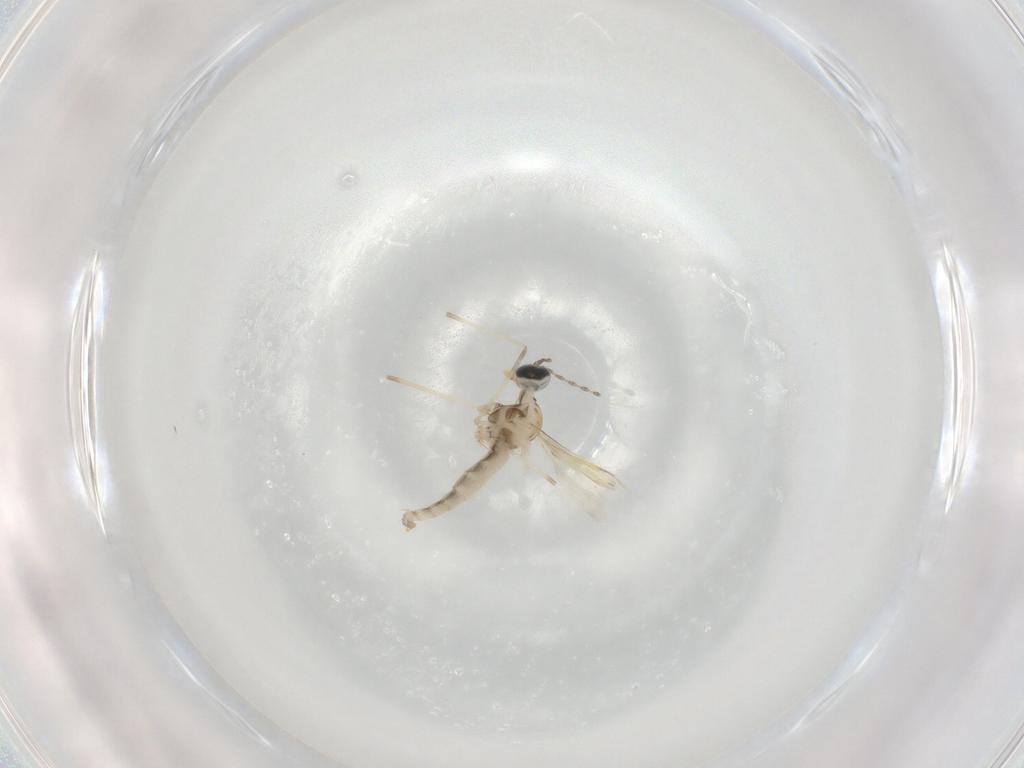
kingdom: Animalia
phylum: Arthropoda
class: Insecta
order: Diptera
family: Cecidomyiidae
